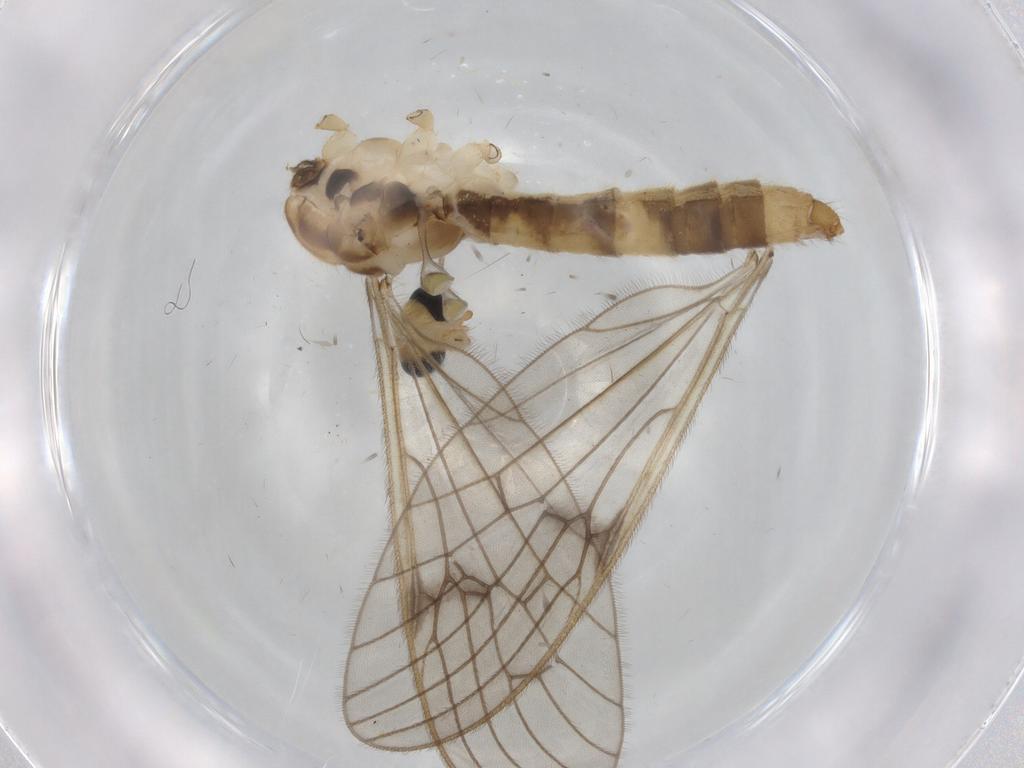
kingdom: Animalia
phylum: Arthropoda
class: Insecta
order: Diptera
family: Limoniidae
